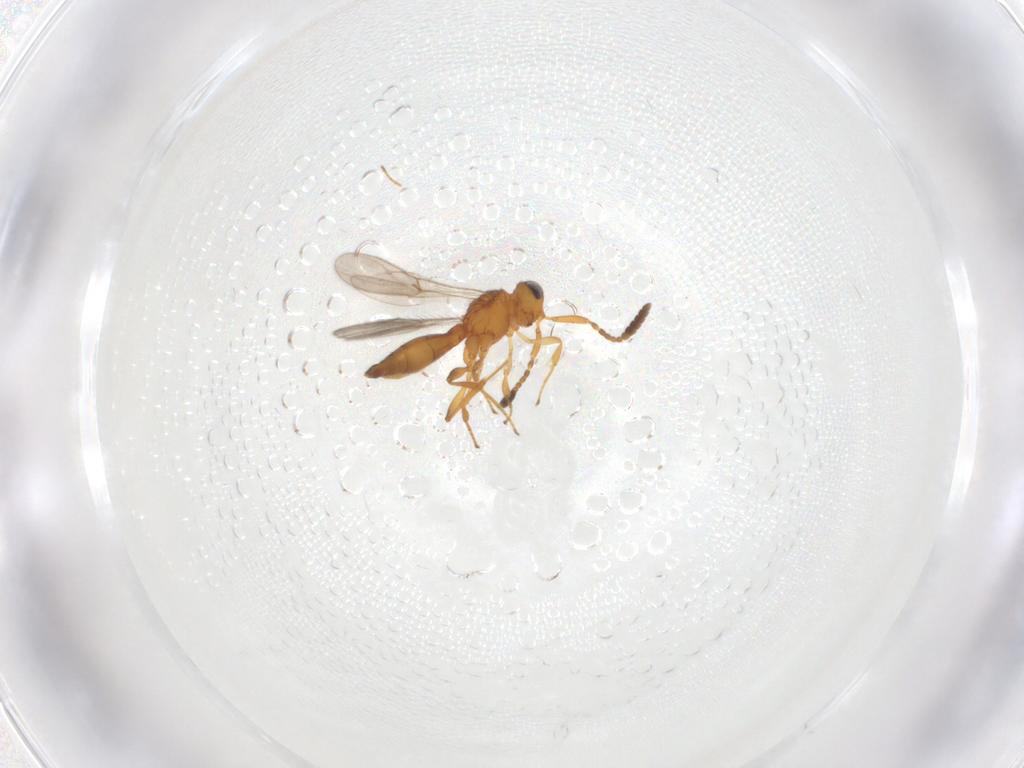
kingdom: Animalia
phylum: Arthropoda
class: Insecta
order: Hymenoptera
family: Scelionidae
